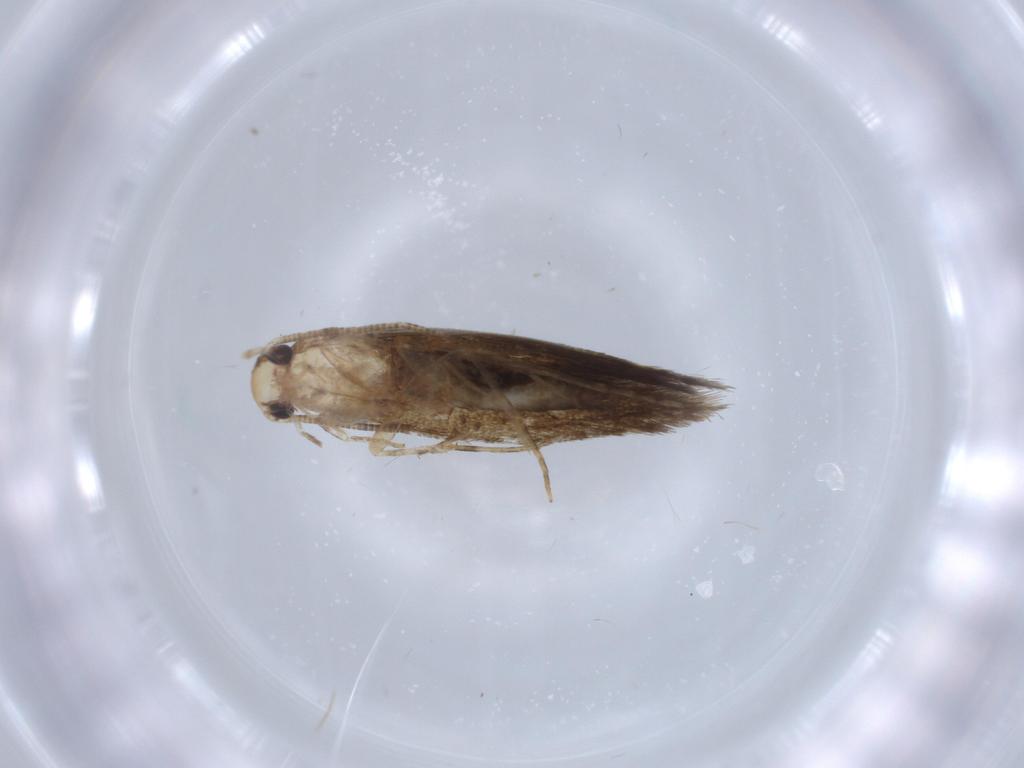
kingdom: Animalia
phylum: Arthropoda
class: Insecta
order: Lepidoptera
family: Tineidae
